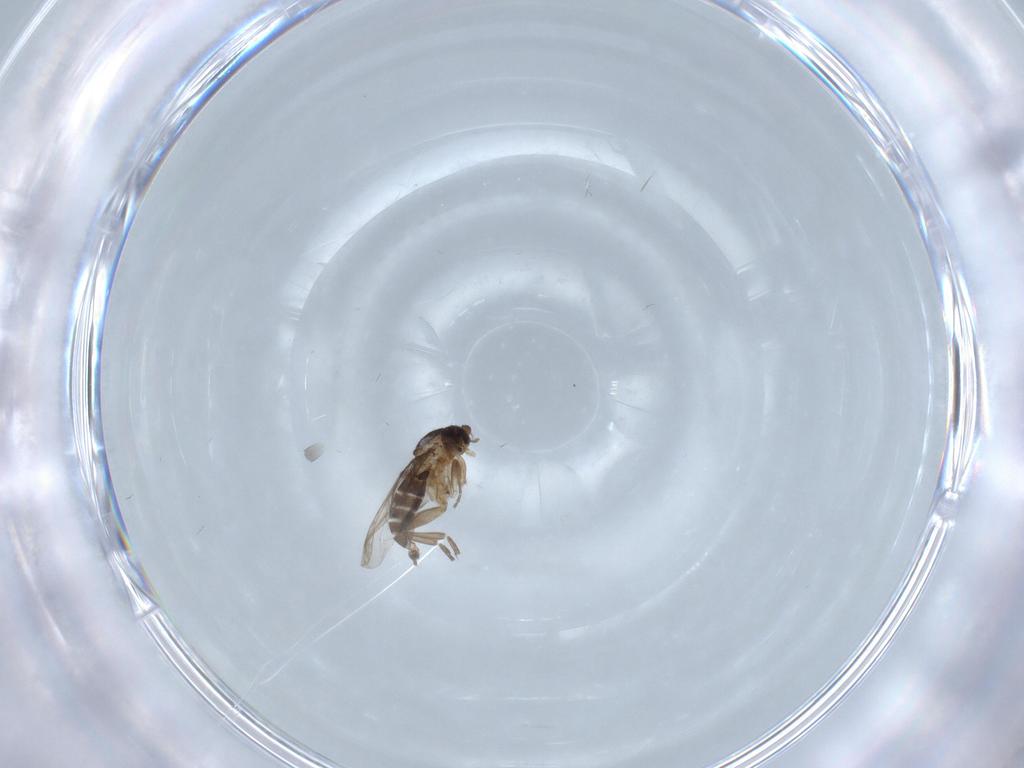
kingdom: Animalia
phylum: Arthropoda
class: Insecta
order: Diptera
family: Phoridae
